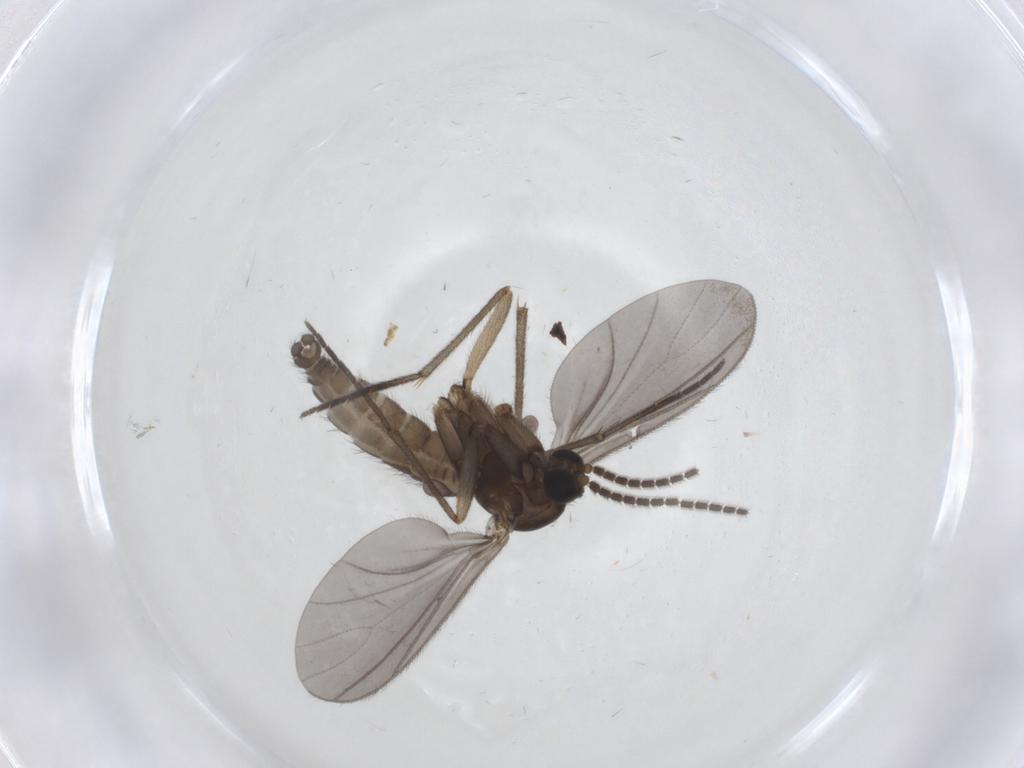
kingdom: Animalia
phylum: Arthropoda
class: Insecta
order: Diptera
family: Sciaridae
